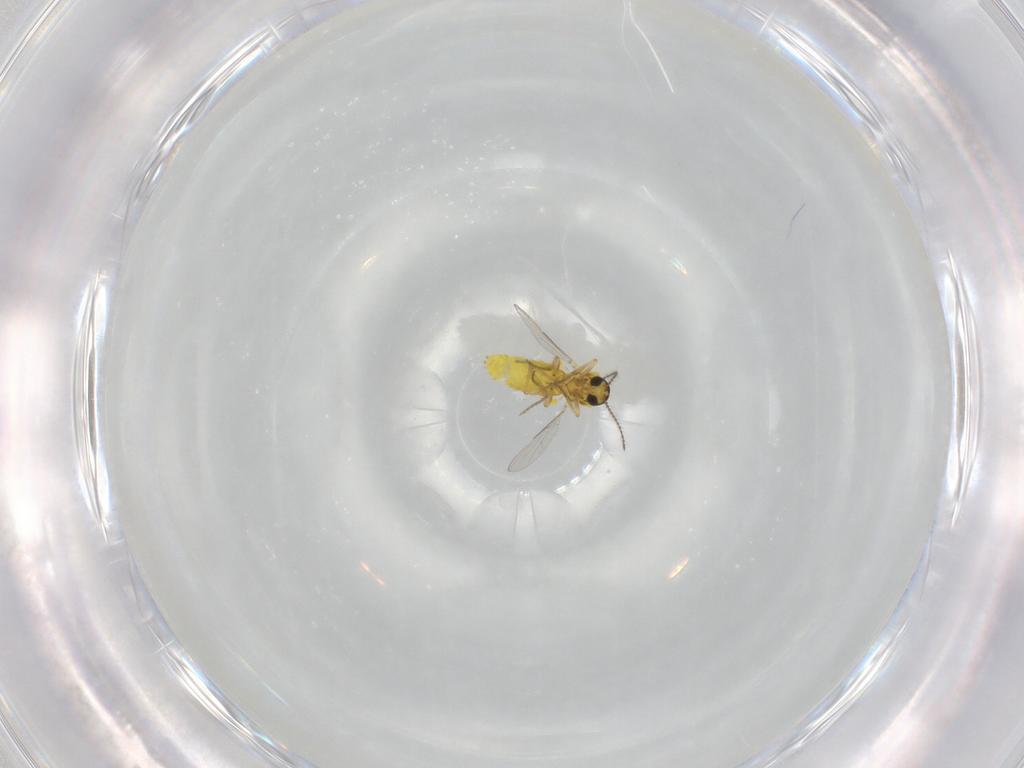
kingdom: Animalia
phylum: Arthropoda
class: Insecta
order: Diptera
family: Ceratopogonidae
